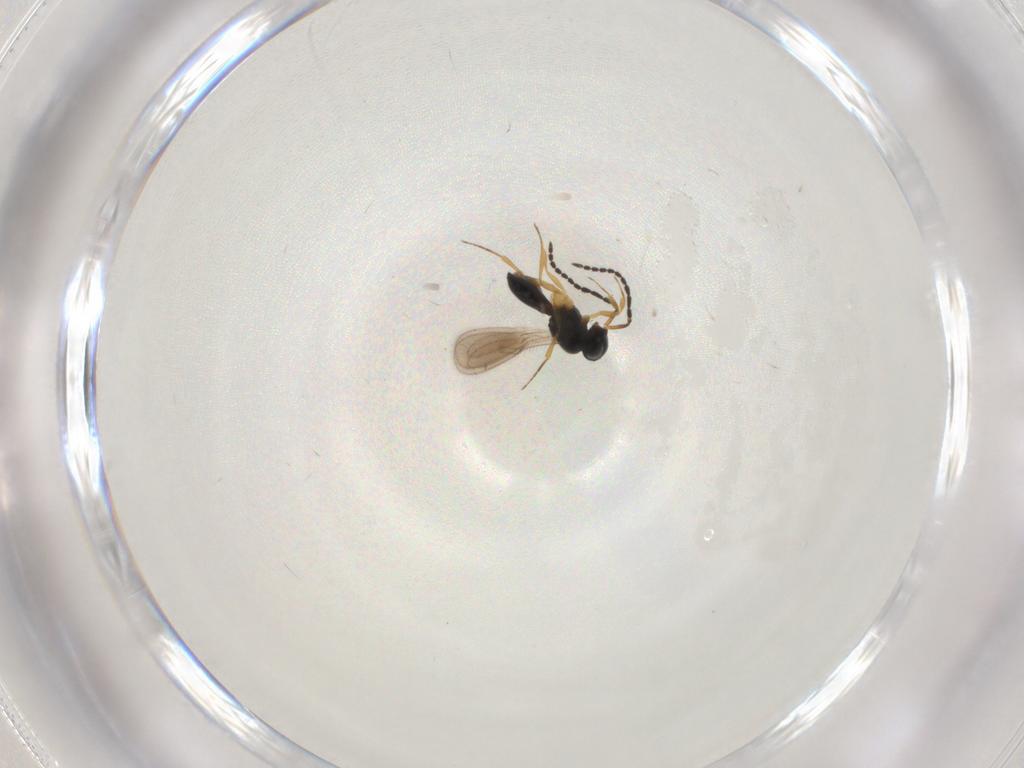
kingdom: Animalia
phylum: Arthropoda
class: Insecta
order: Hymenoptera
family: Scelionidae
